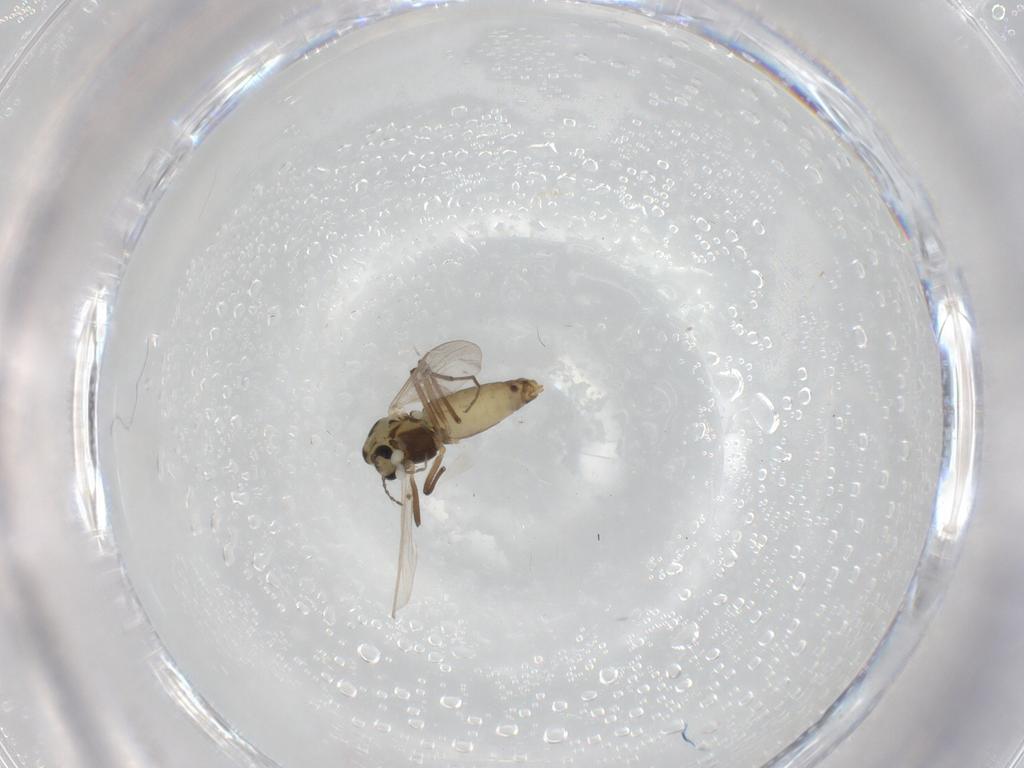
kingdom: Animalia
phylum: Arthropoda
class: Insecta
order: Diptera
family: Chironomidae
